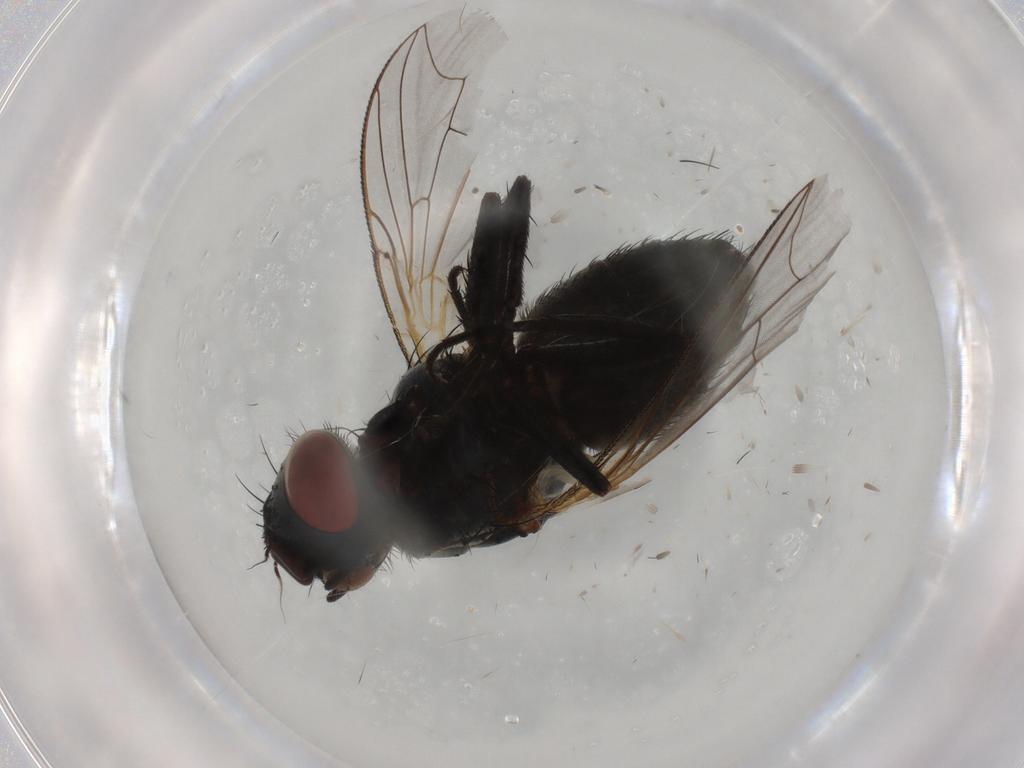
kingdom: Animalia
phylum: Arthropoda
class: Insecta
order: Diptera
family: Sarcophagidae
